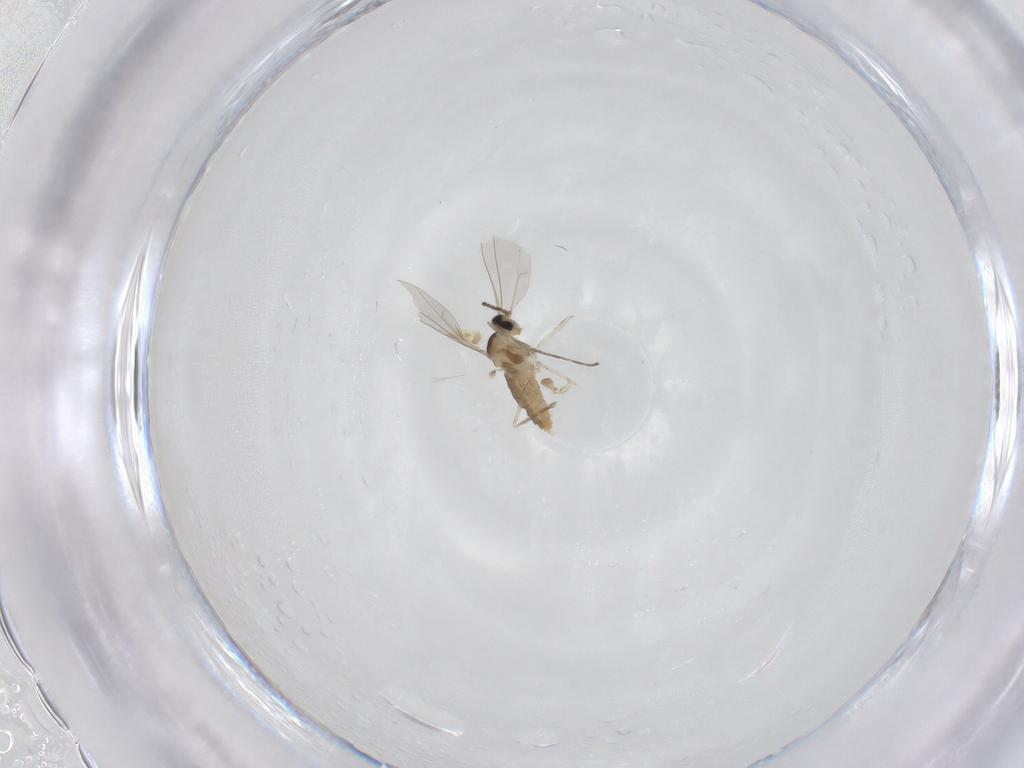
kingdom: Animalia
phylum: Arthropoda
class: Insecta
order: Diptera
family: Cecidomyiidae
